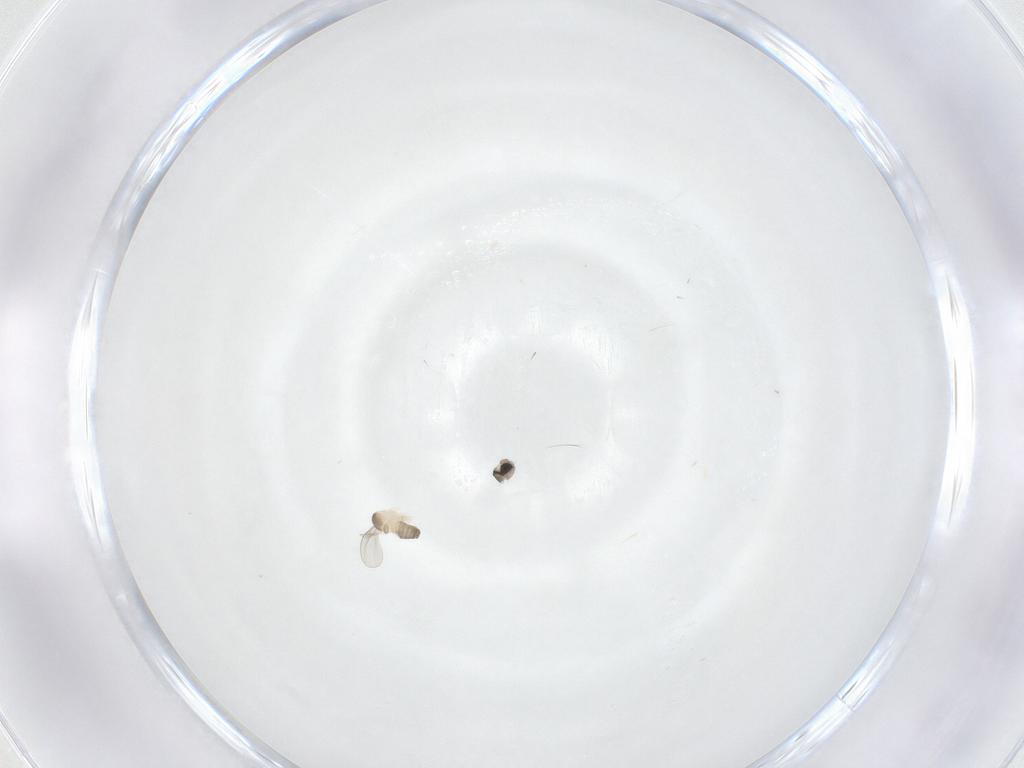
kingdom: Animalia
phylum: Arthropoda
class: Insecta
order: Diptera
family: Cecidomyiidae
